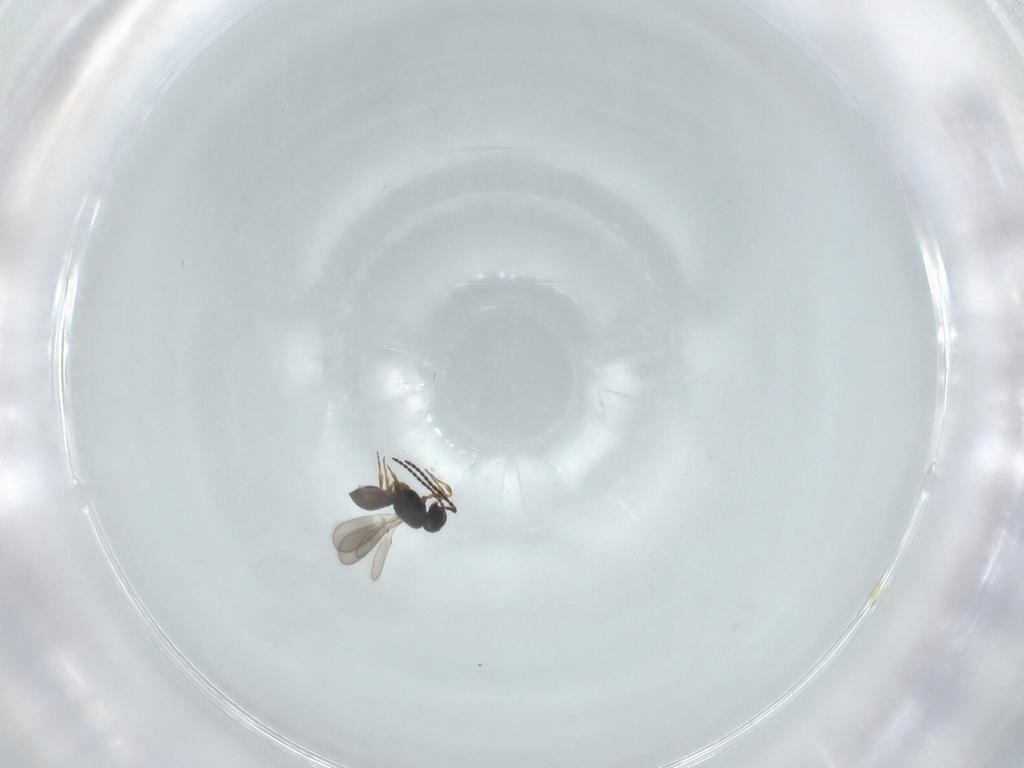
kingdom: Animalia
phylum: Arthropoda
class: Insecta
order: Hymenoptera
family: Scelionidae
